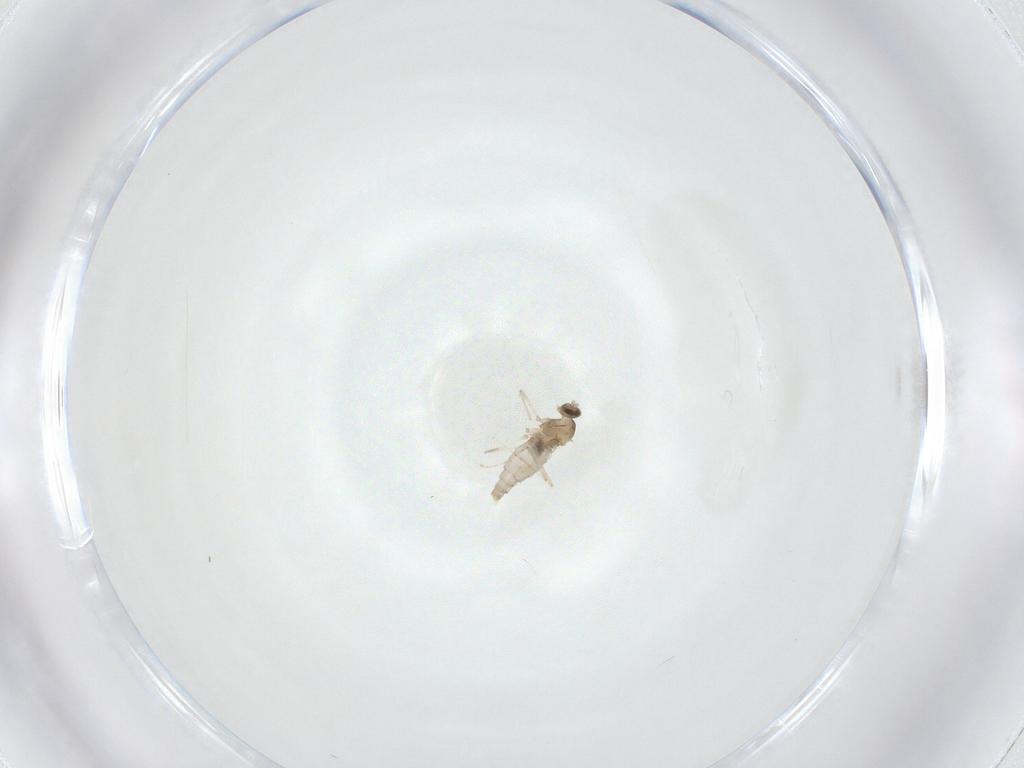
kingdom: Animalia
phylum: Arthropoda
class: Insecta
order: Diptera
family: Cecidomyiidae
